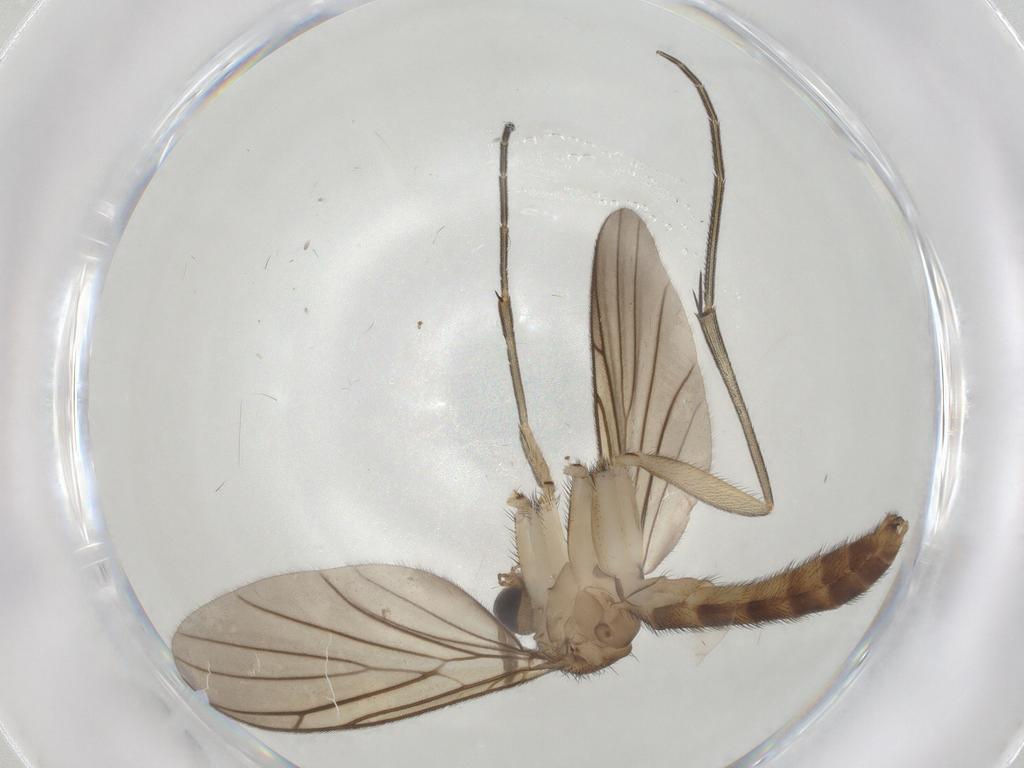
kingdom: Animalia
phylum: Arthropoda
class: Insecta
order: Diptera
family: Keroplatidae
